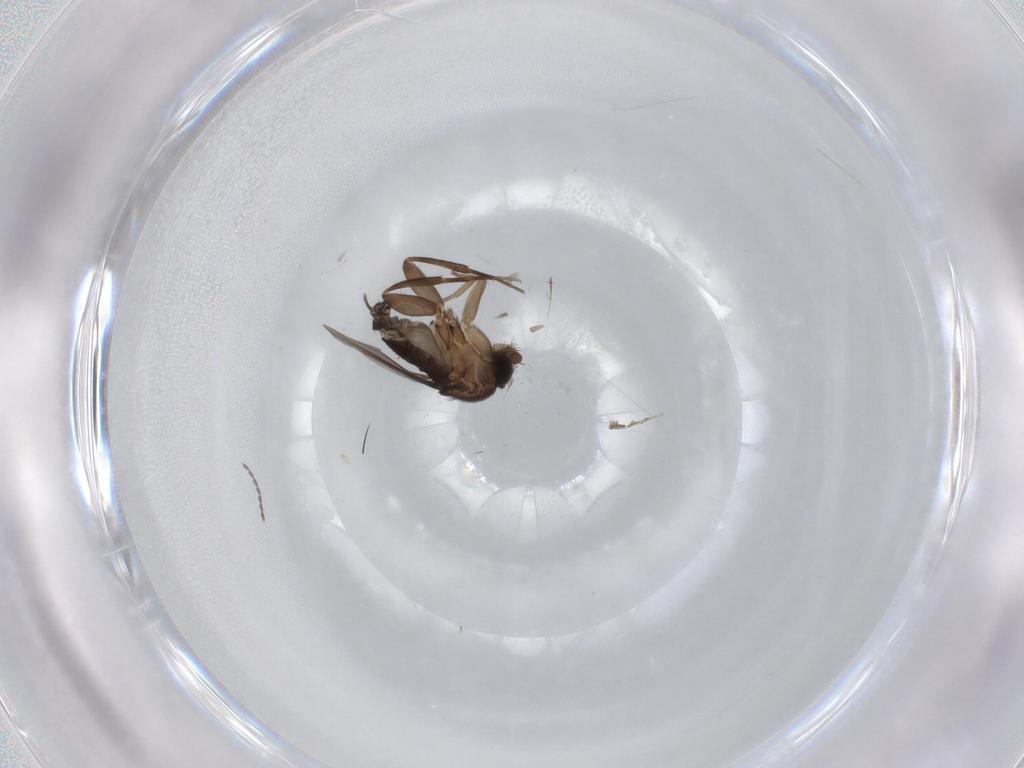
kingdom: Animalia
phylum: Arthropoda
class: Insecta
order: Diptera
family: Phoridae
